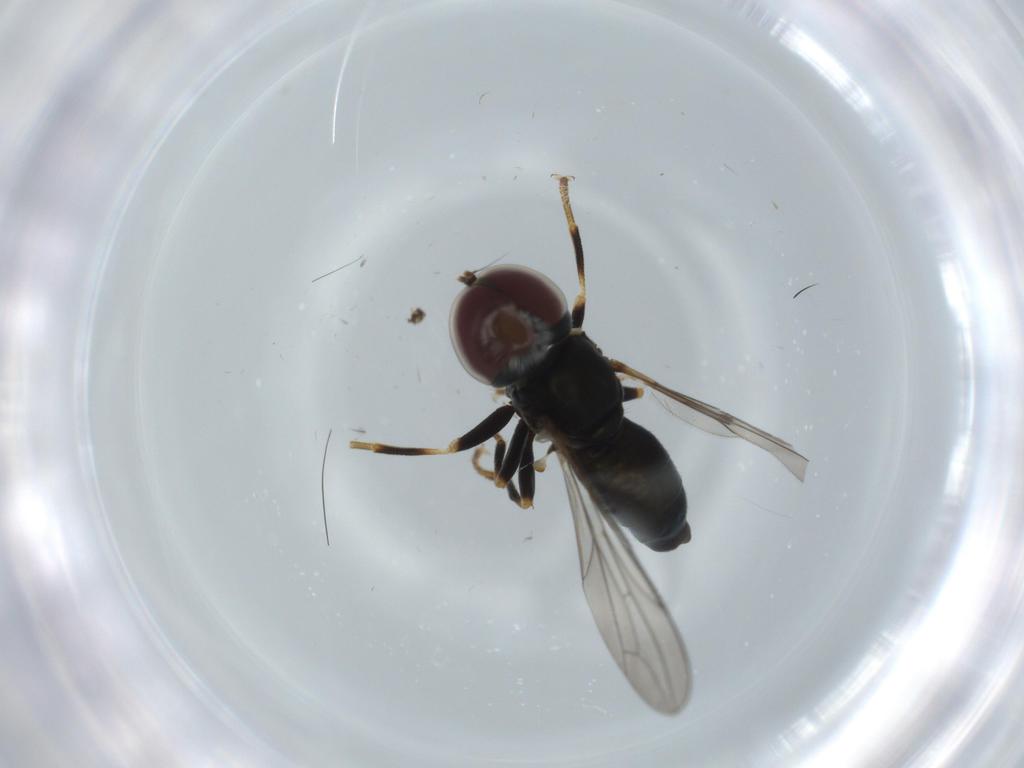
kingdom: Animalia
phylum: Arthropoda
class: Insecta
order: Diptera
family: Pipunculidae
